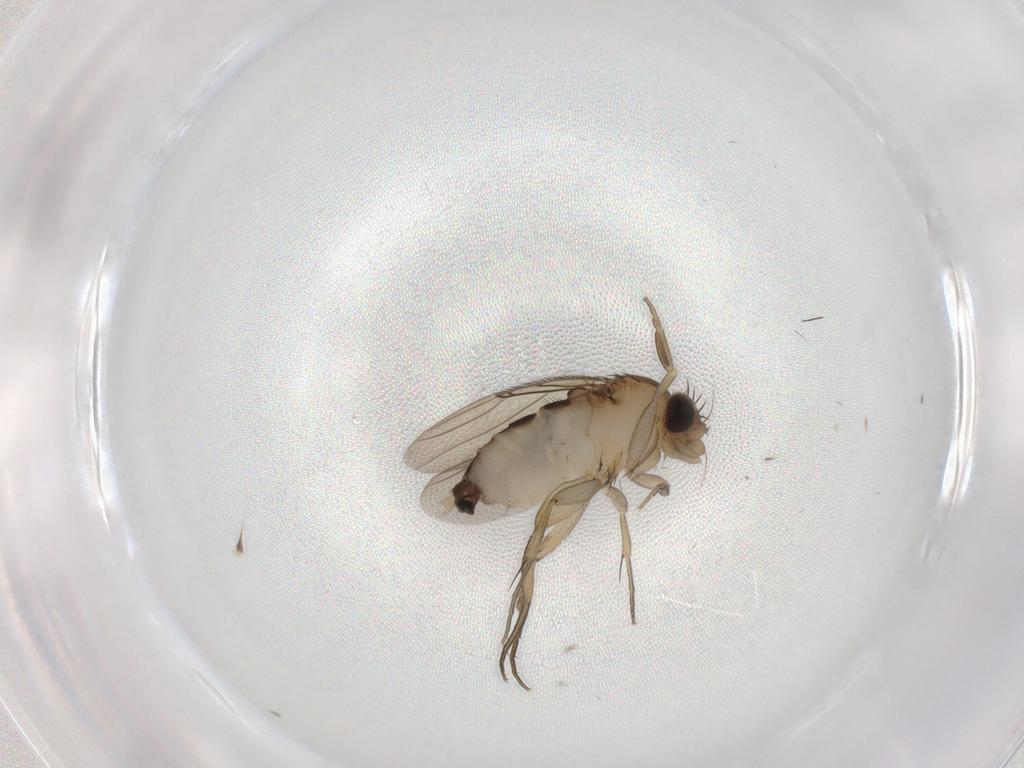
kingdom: Animalia
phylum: Arthropoda
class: Insecta
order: Diptera
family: Phoridae
